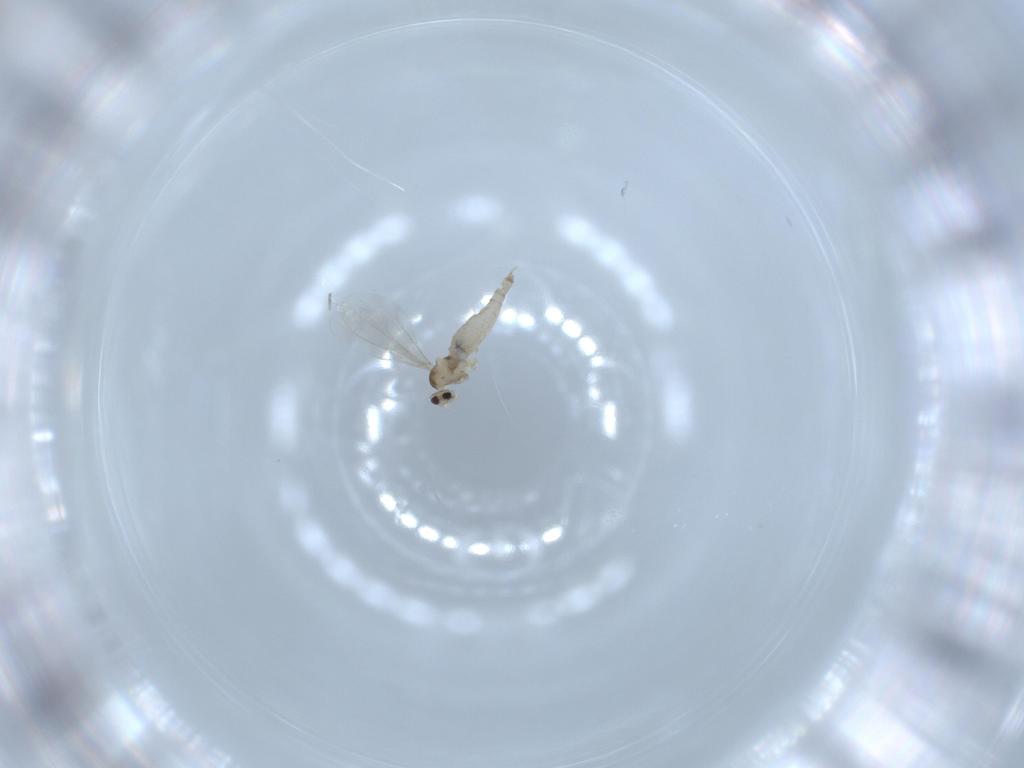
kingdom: Animalia
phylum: Arthropoda
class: Insecta
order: Diptera
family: Cecidomyiidae
